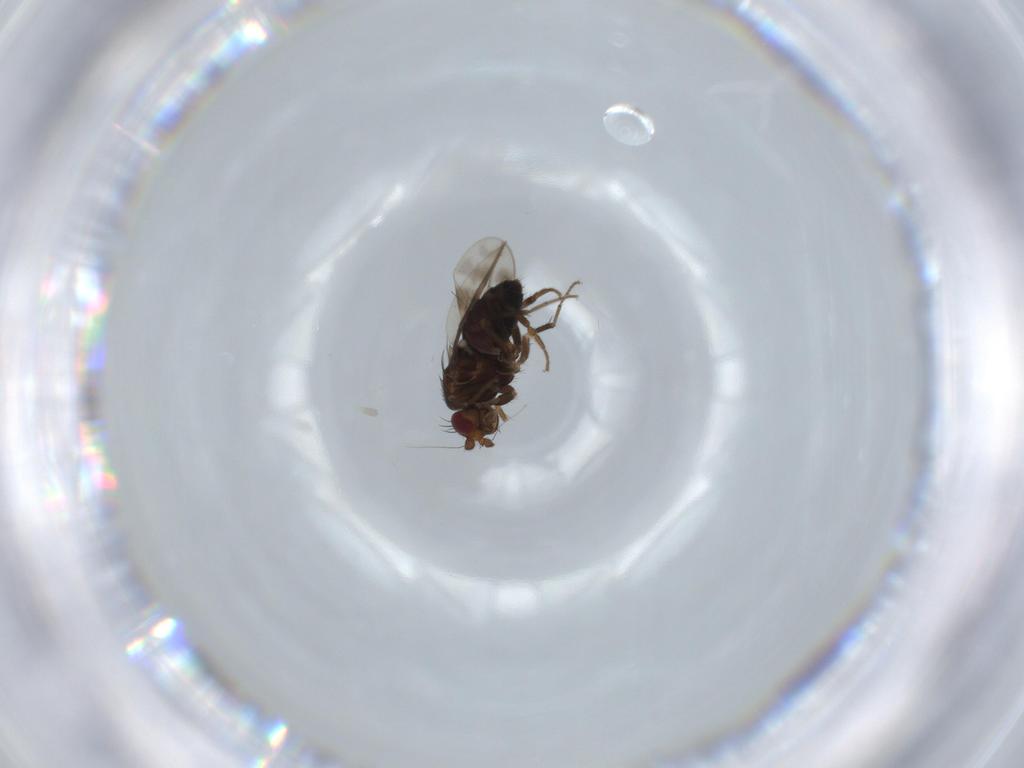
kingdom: Animalia
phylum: Arthropoda
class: Insecta
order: Diptera
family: Sphaeroceridae
